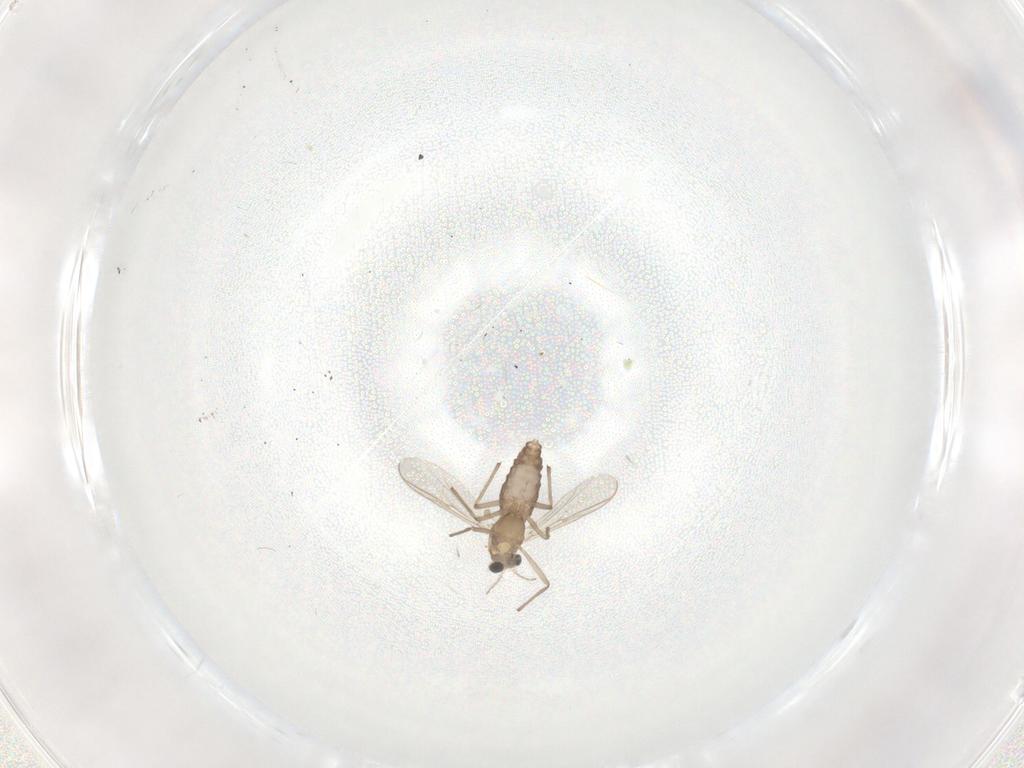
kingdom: Animalia
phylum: Arthropoda
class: Insecta
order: Diptera
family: Chironomidae
